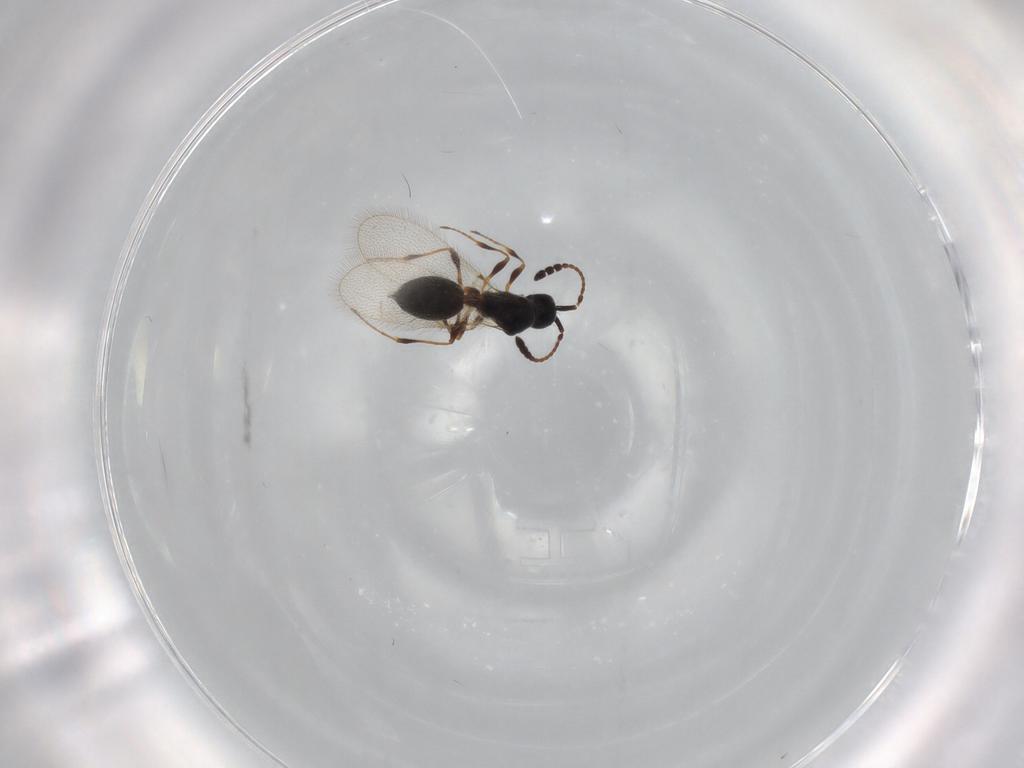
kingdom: Animalia
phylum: Arthropoda
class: Insecta
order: Hymenoptera
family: Diapriidae
